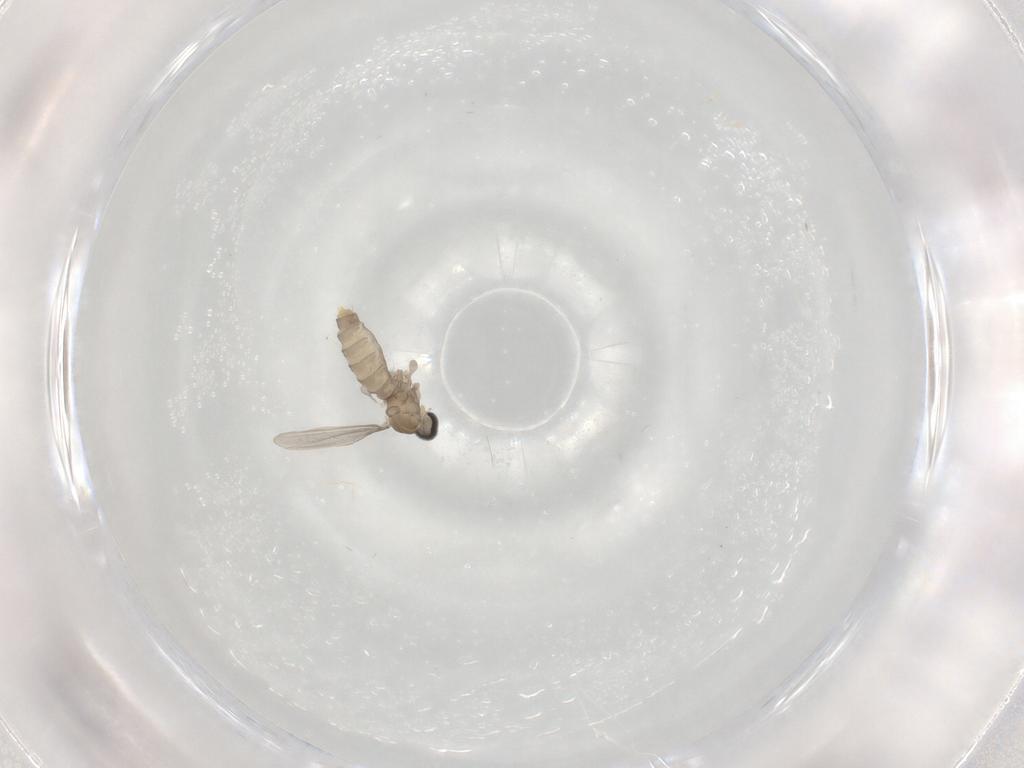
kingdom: Animalia
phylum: Arthropoda
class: Insecta
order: Diptera
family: Cecidomyiidae
